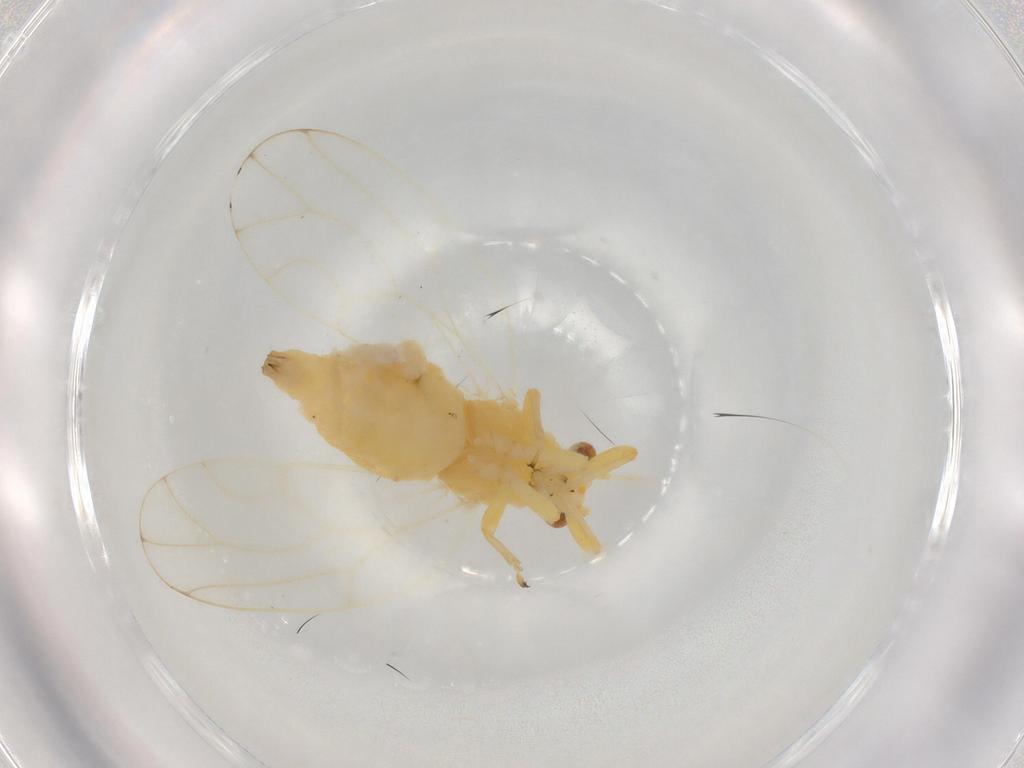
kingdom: Animalia
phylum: Arthropoda
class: Insecta
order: Hemiptera
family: Aphalaridae
